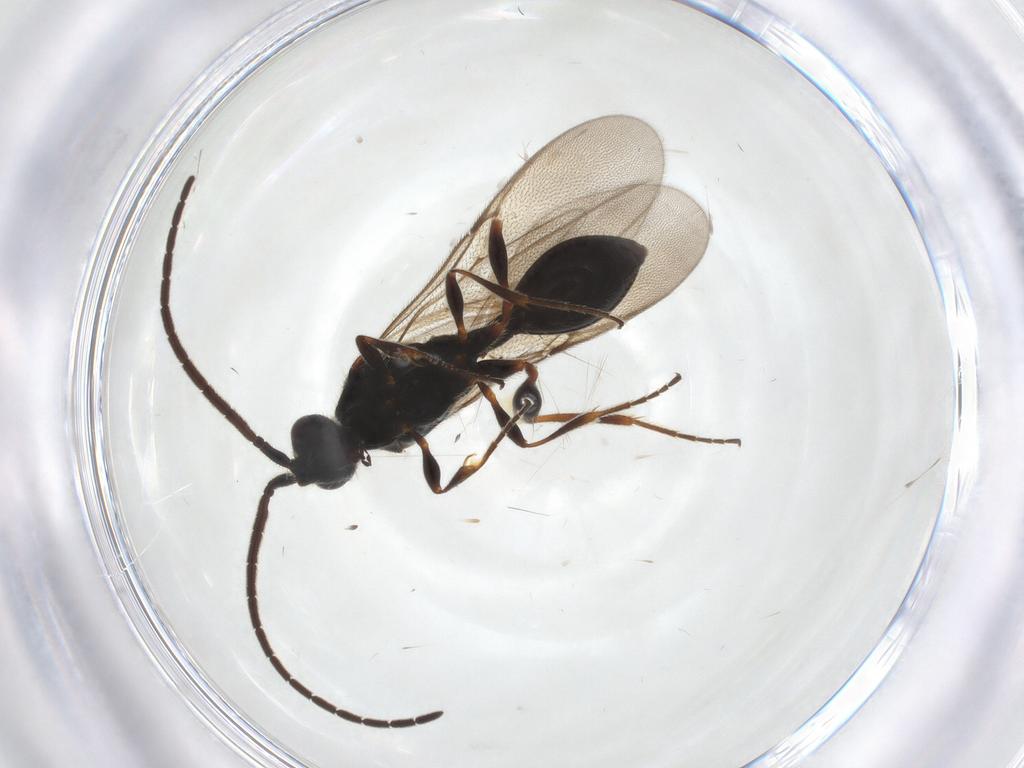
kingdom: Animalia
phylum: Arthropoda
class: Insecta
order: Hymenoptera
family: Diapriidae
